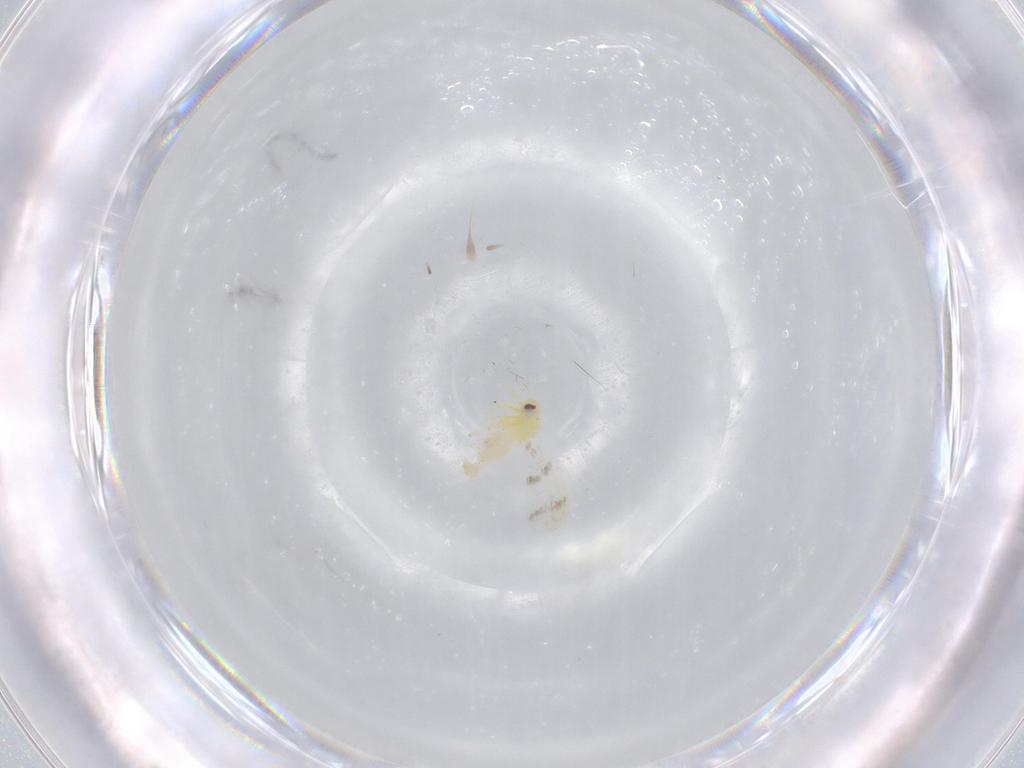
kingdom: Animalia
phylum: Arthropoda
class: Insecta
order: Hemiptera
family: Aleyrodidae
